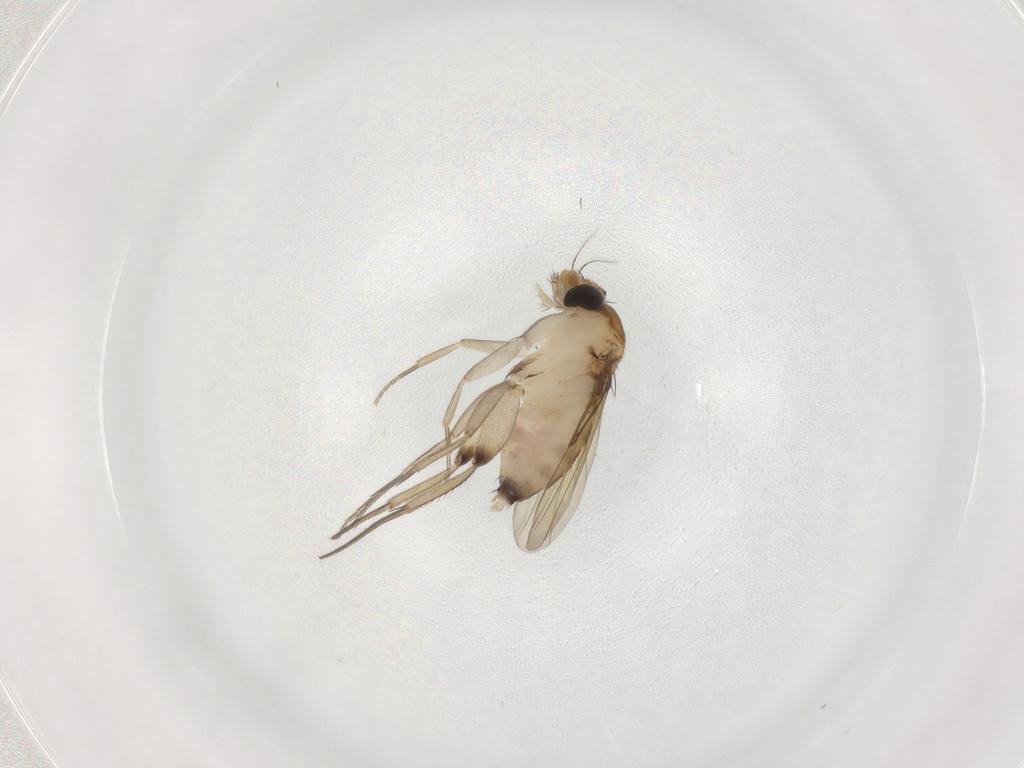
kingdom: Animalia
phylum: Arthropoda
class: Insecta
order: Diptera
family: Phoridae
